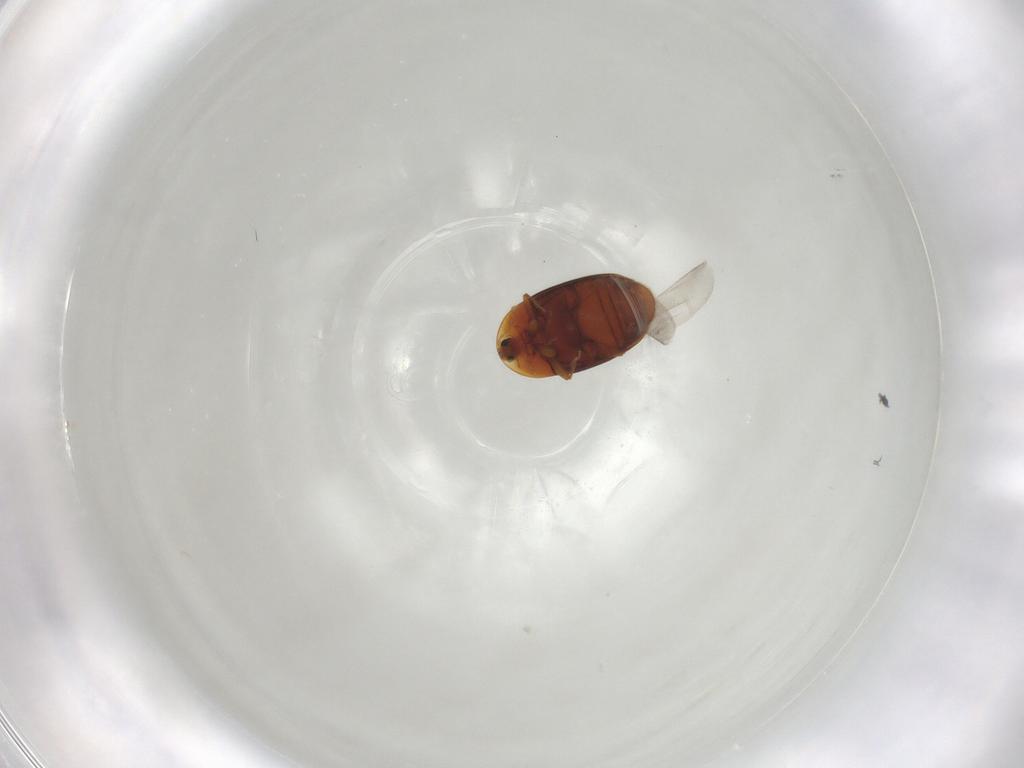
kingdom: Animalia
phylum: Arthropoda
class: Insecta
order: Coleoptera
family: Corylophidae
